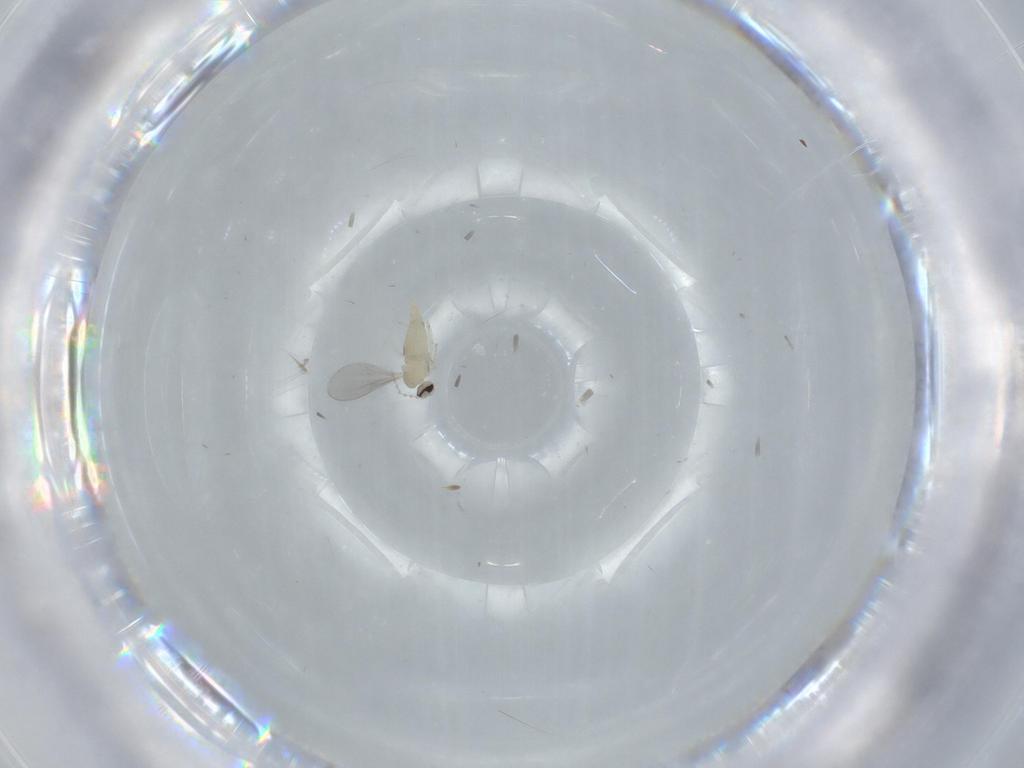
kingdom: Animalia
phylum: Arthropoda
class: Insecta
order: Diptera
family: Cecidomyiidae
